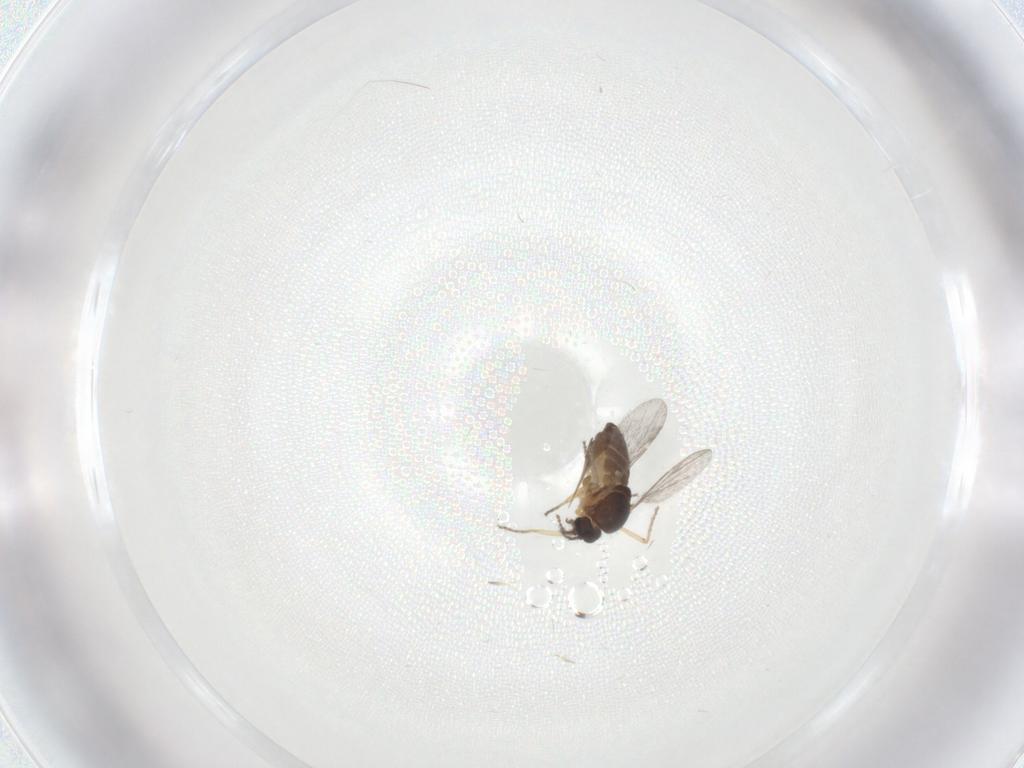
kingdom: Animalia
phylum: Arthropoda
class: Insecta
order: Diptera
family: Ceratopogonidae
